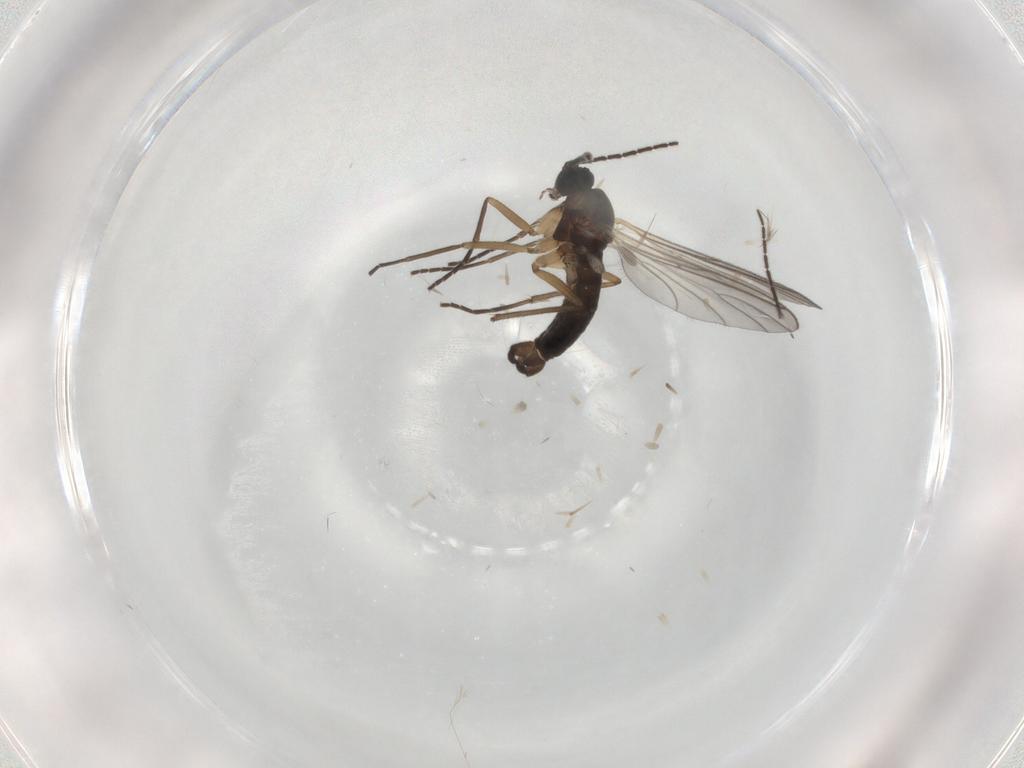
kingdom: Animalia
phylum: Arthropoda
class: Insecta
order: Diptera
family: Sciaridae
